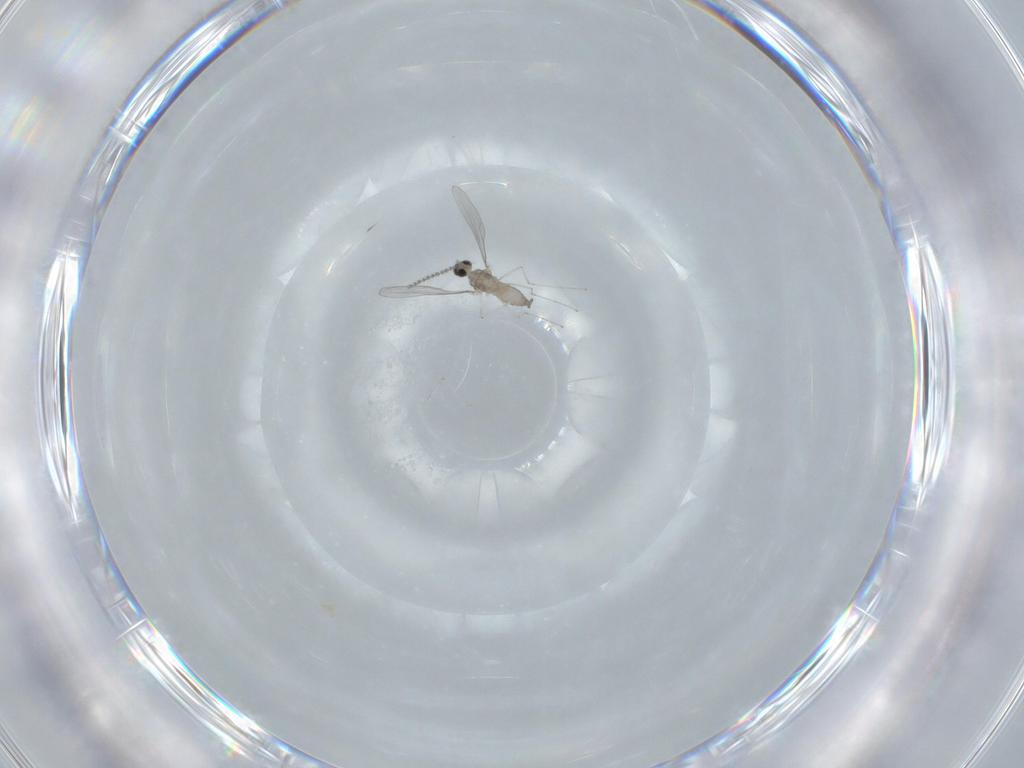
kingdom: Animalia
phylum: Arthropoda
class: Insecta
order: Diptera
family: Cecidomyiidae
